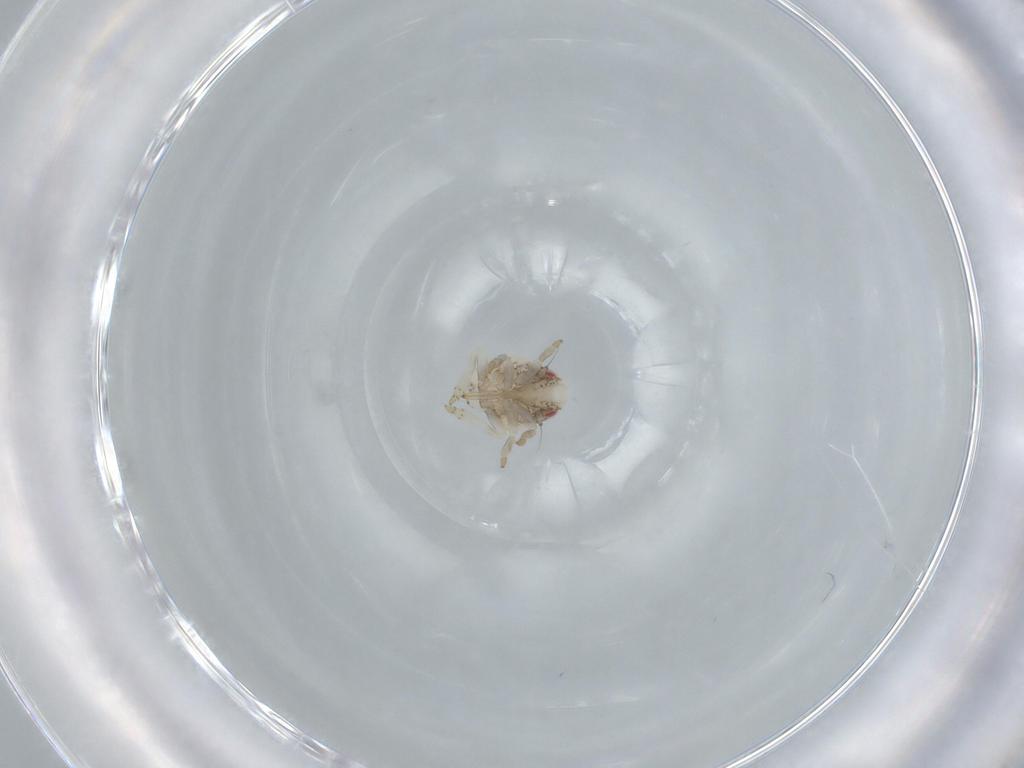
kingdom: Animalia
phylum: Arthropoda
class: Insecta
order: Hemiptera
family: Acanaloniidae
